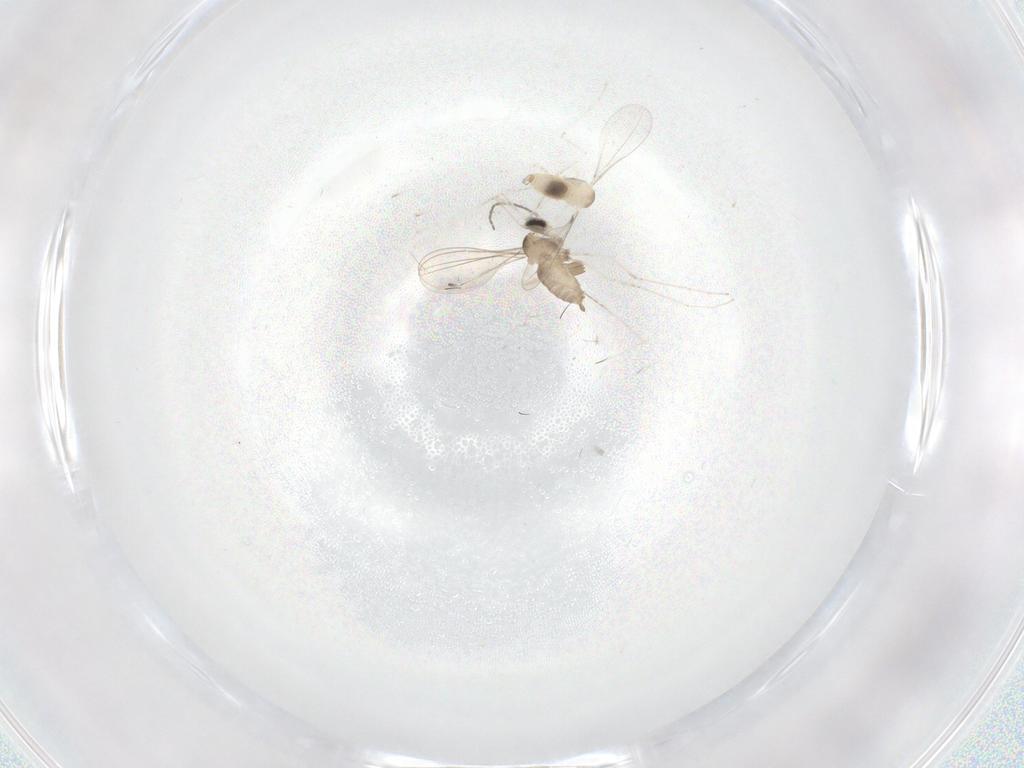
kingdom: Animalia
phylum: Arthropoda
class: Insecta
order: Diptera
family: Cecidomyiidae
